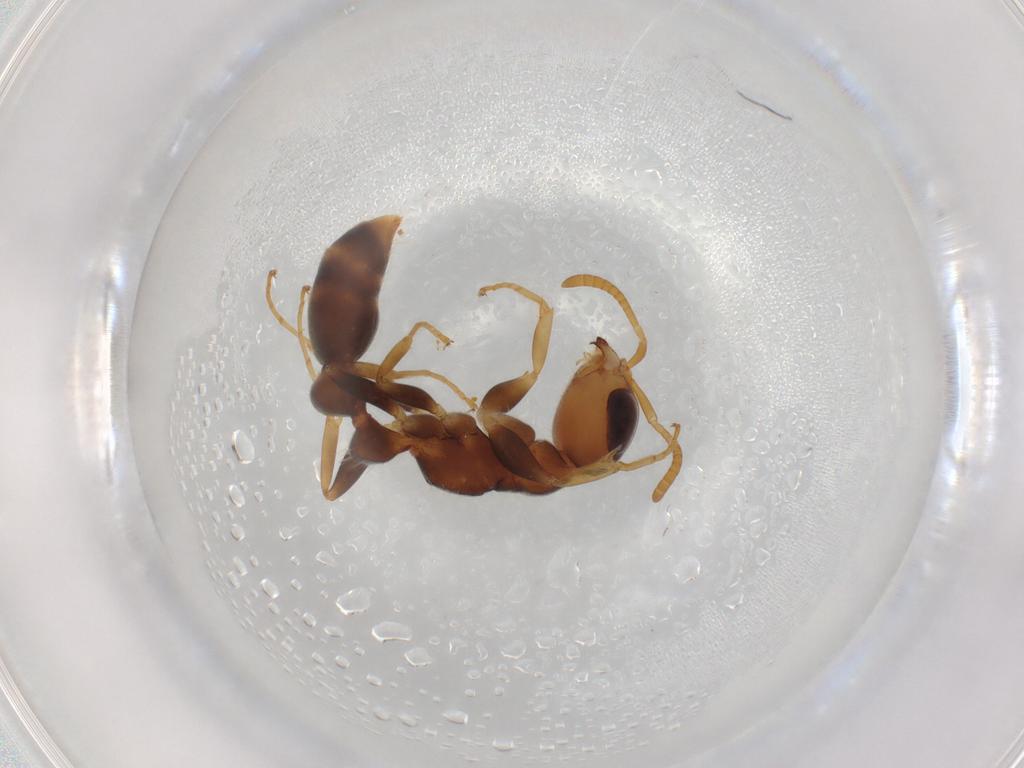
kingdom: Animalia
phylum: Arthropoda
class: Insecta
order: Hymenoptera
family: Formicidae
